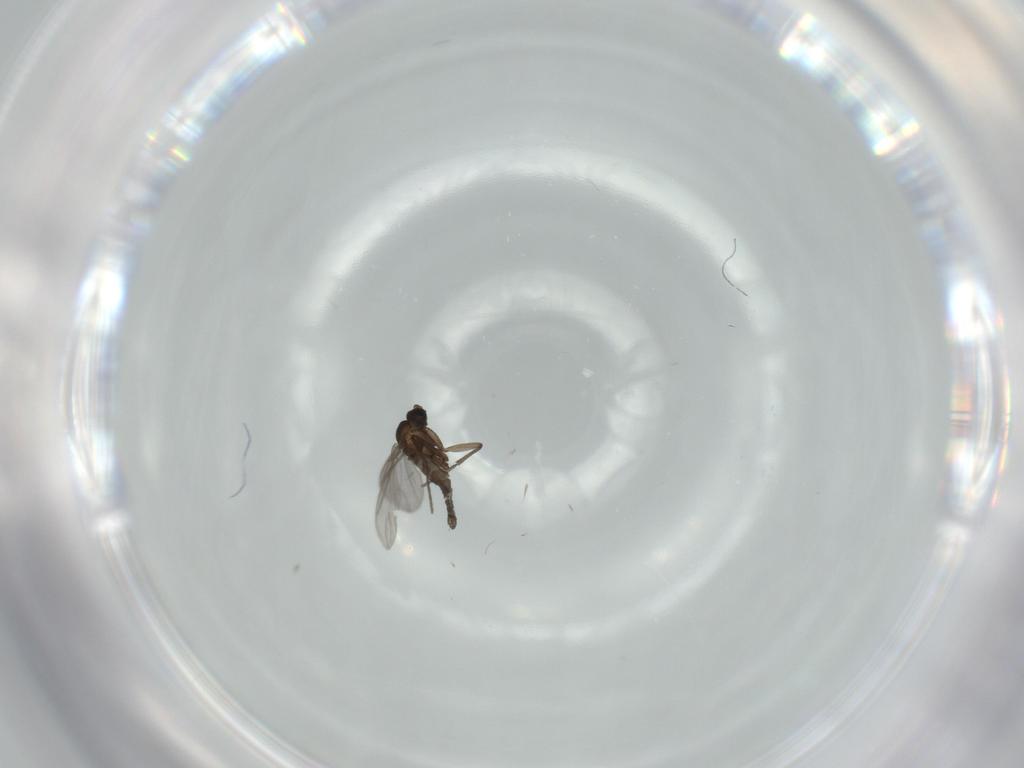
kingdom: Animalia
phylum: Arthropoda
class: Insecta
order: Diptera
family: Sciaridae
